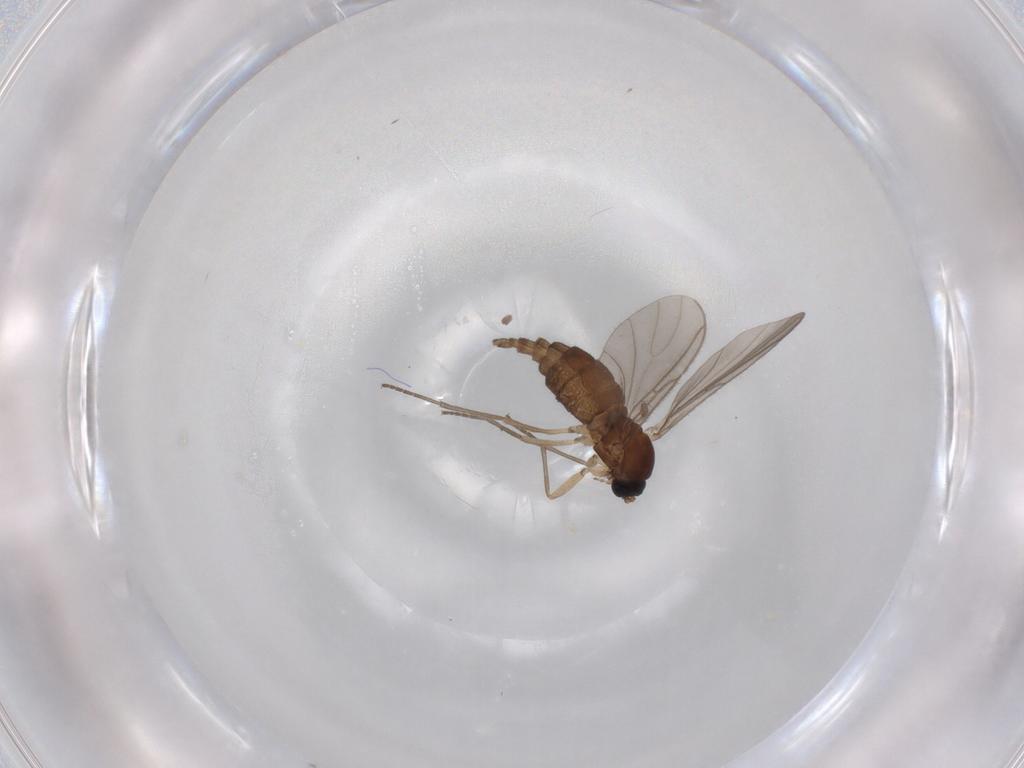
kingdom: Animalia
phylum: Arthropoda
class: Insecta
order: Diptera
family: Sciaridae
